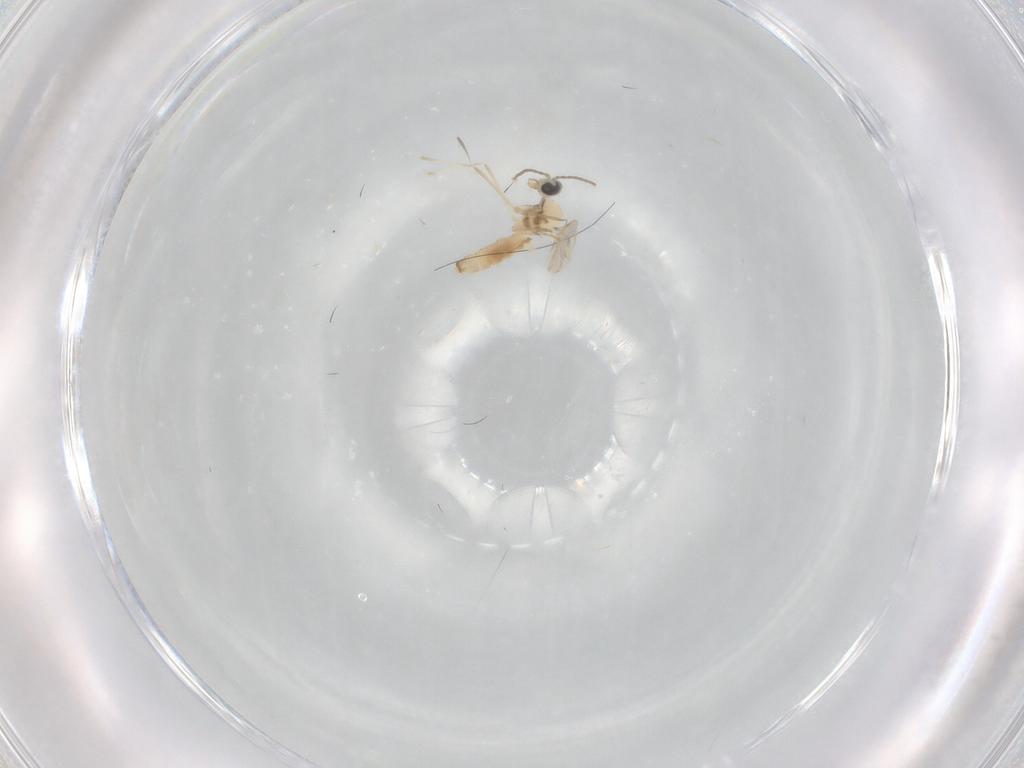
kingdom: Animalia
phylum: Arthropoda
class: Insecta
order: Diptera
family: Cecidomyiidae
